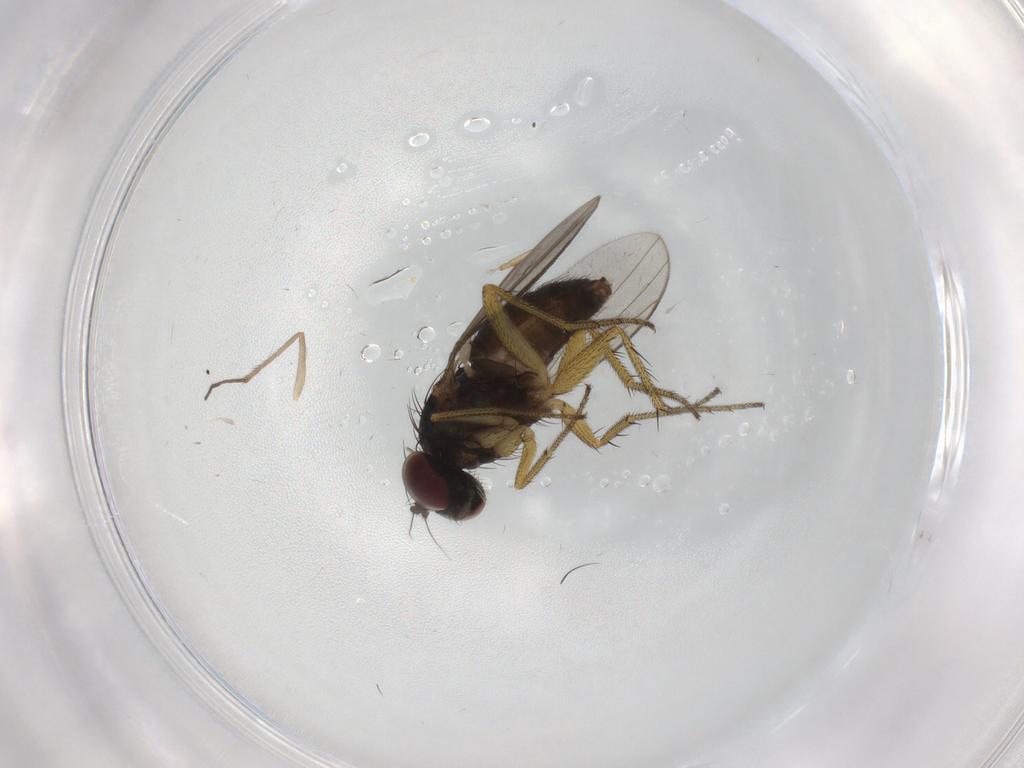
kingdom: Animalia
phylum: Arthropoda
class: Insecta
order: Diptera
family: Chironomidae
